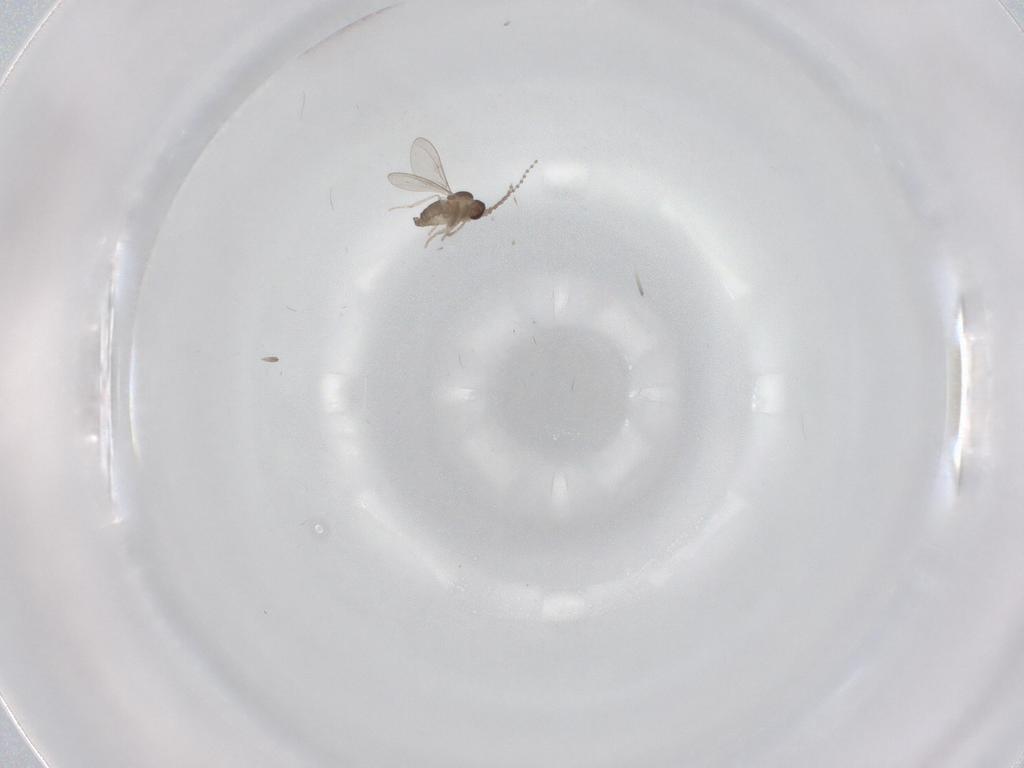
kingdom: Animalia
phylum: Arthropoda
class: Insecta
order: Diptera
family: Cecidomyiidae
